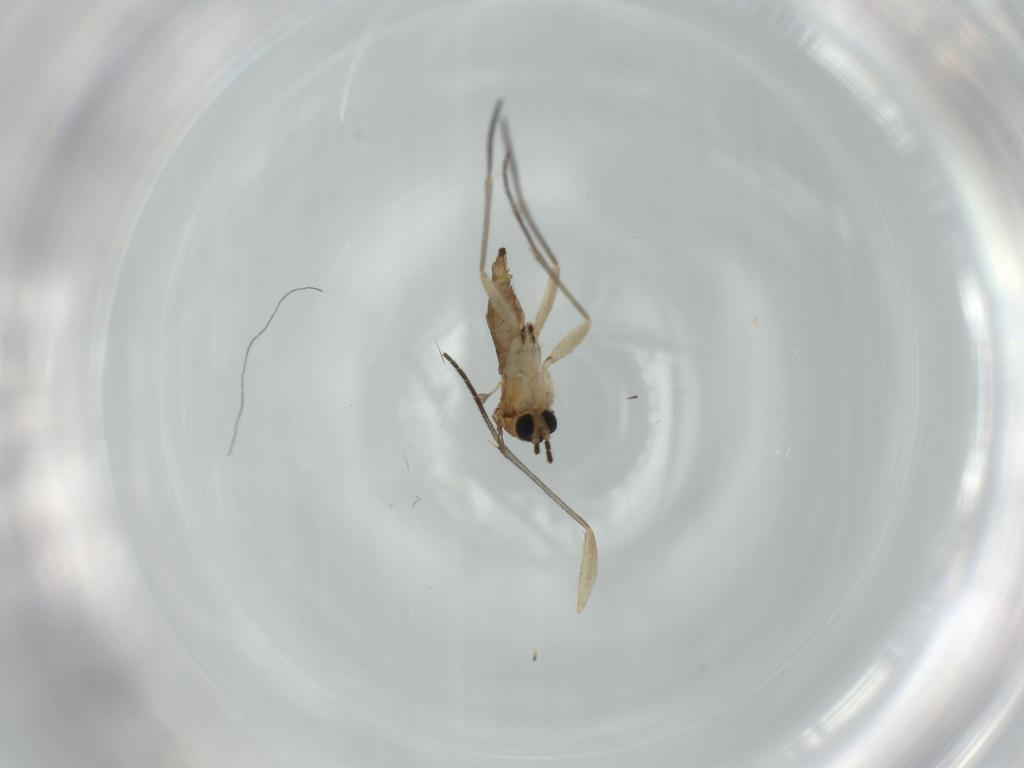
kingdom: Animalia
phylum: Arthropoda
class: Insecta
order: Diptera
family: Sciaridae
